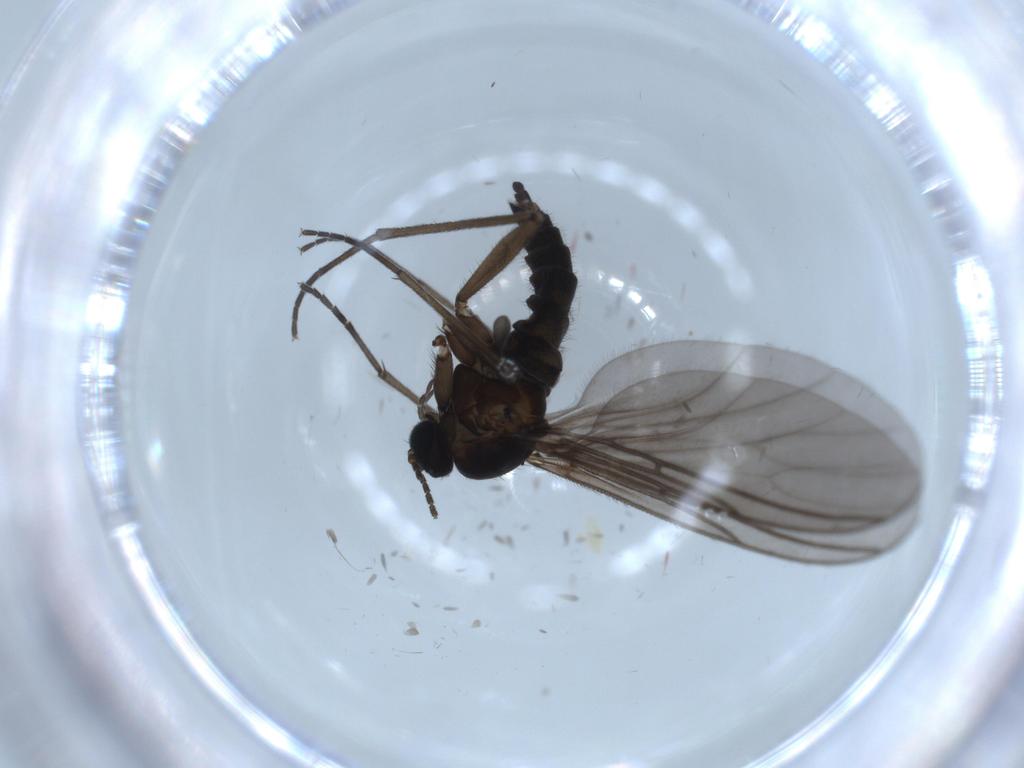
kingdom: Animalia
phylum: Arthropoda
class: Insecta
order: Diptera
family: Sciaridae
